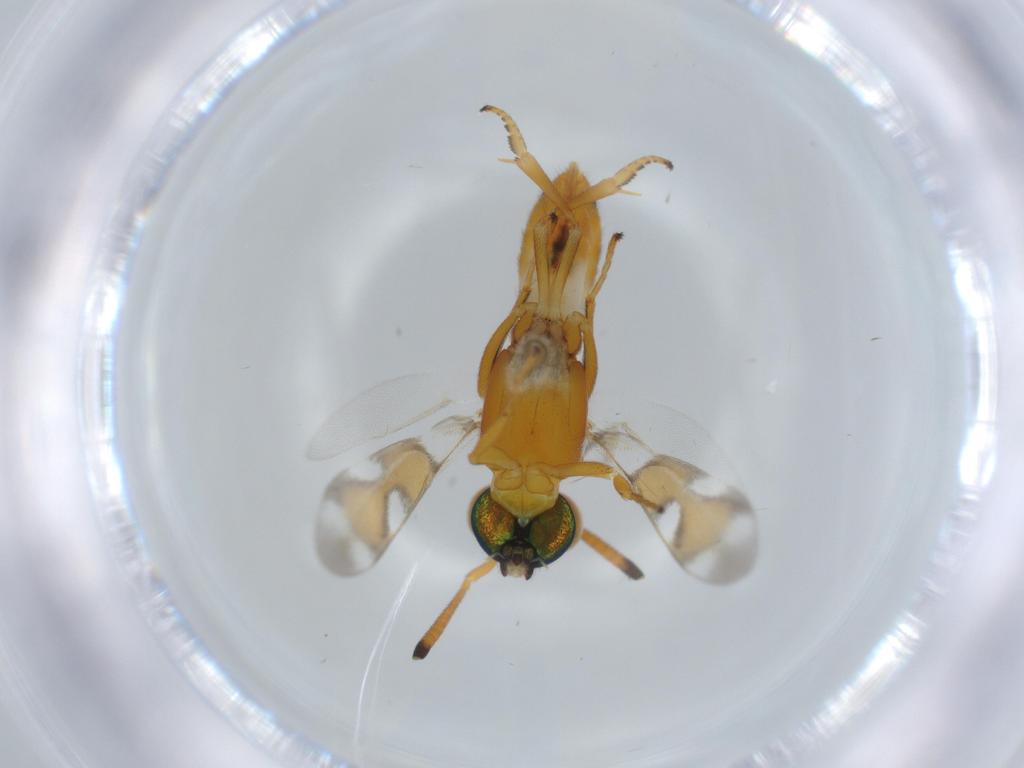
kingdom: Animalia
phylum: Arthropoda
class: Insecta
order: Hymenoptera
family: Eupelmidae
